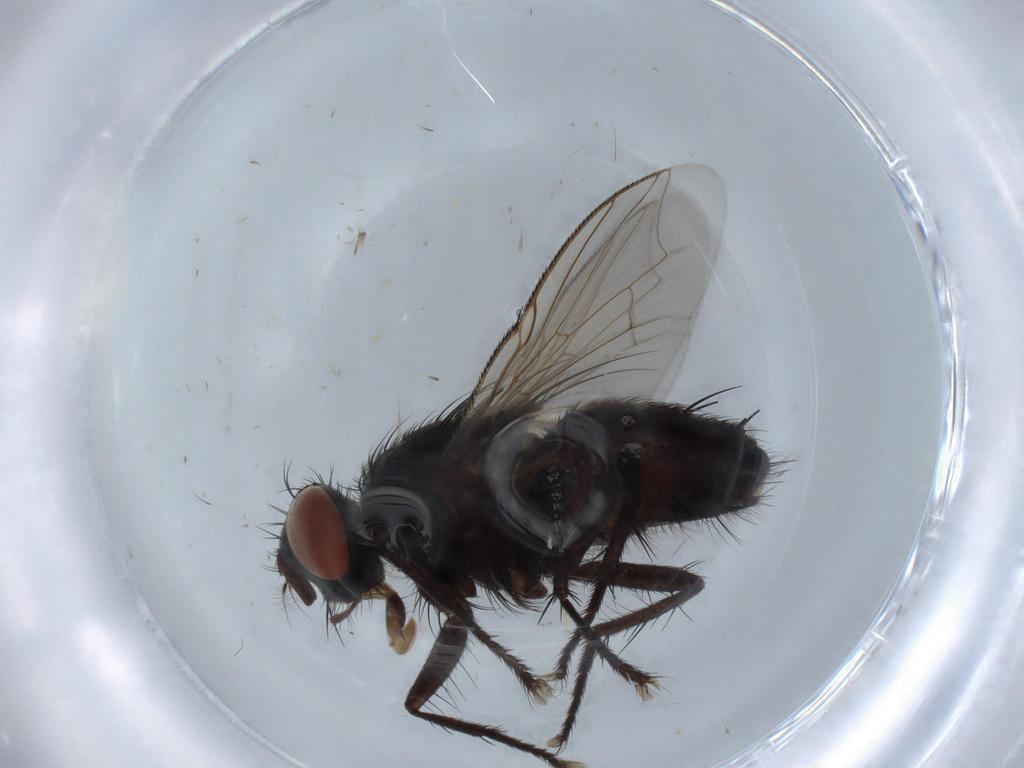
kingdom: Animalia
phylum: Arthropoda
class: Insecta
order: Diptera
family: Sarcophagidae
